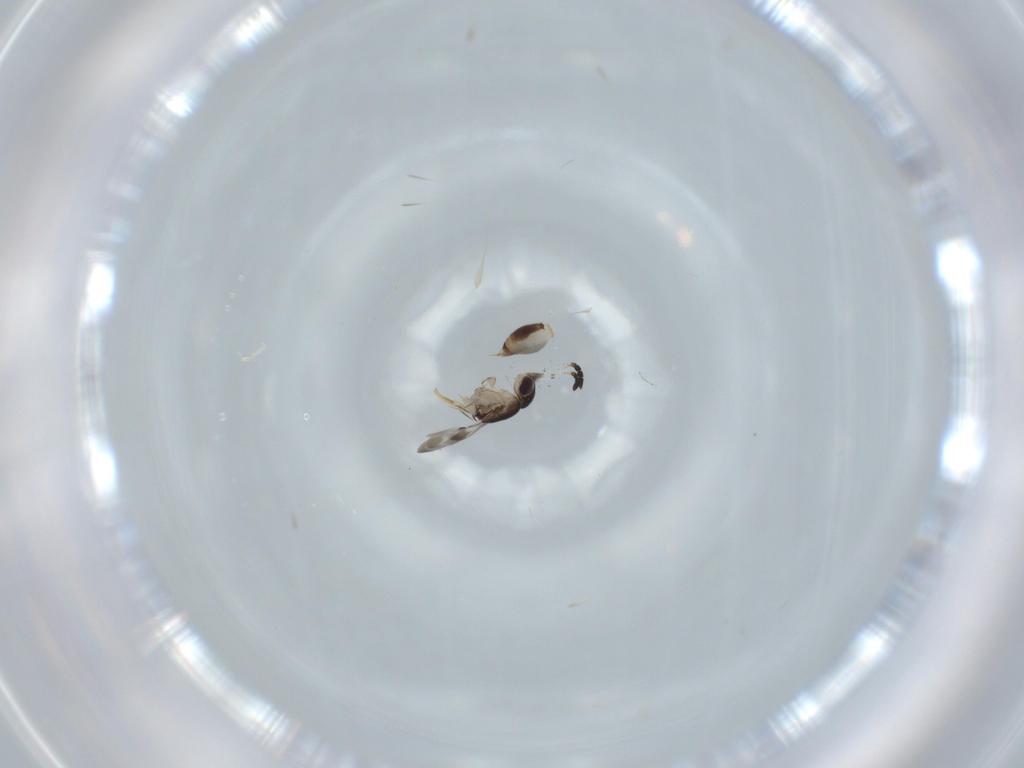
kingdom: Animalia
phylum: Arthropoda
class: Insecta
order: Hymenoptera
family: Scelionidae
